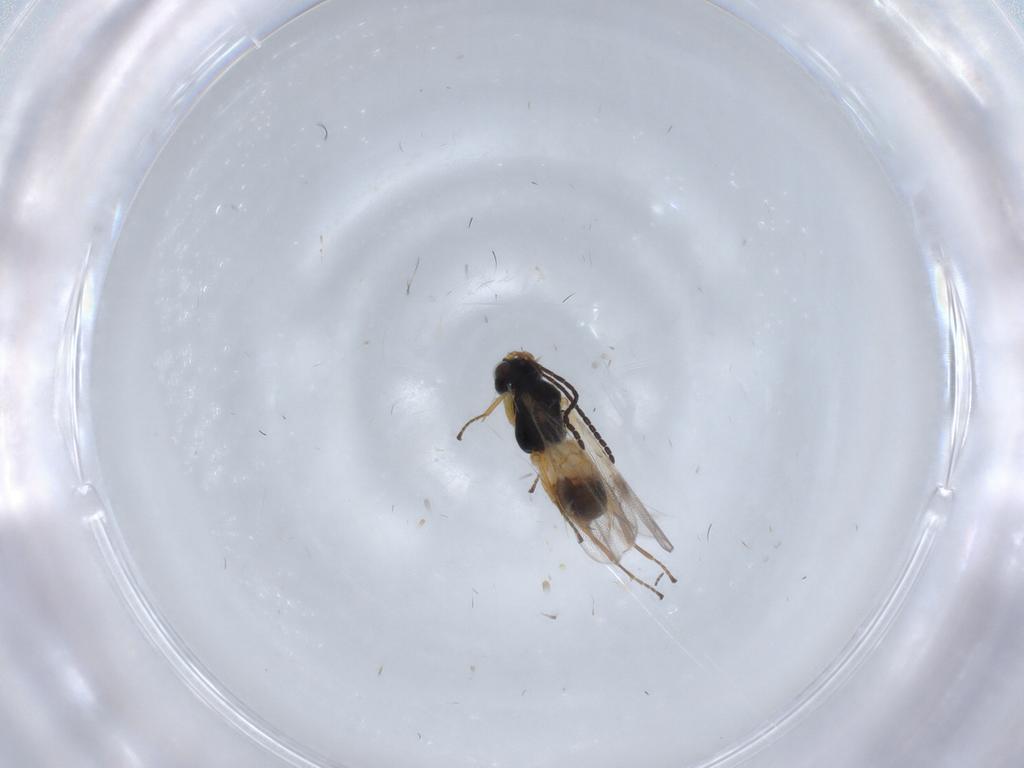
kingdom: Animalia
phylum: Arthropoda
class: Insecta
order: Hymenoptera
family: Braconidae
